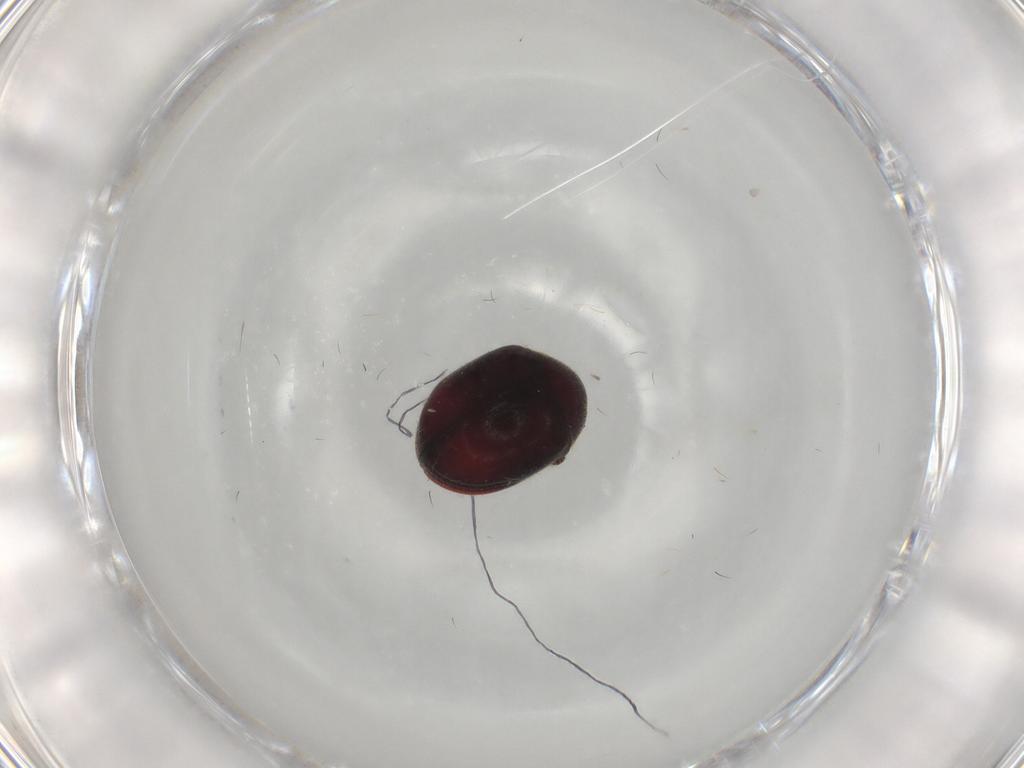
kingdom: Animalia
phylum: Arthropoda
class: Insecta
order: Coleoptera
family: Ptinidae
